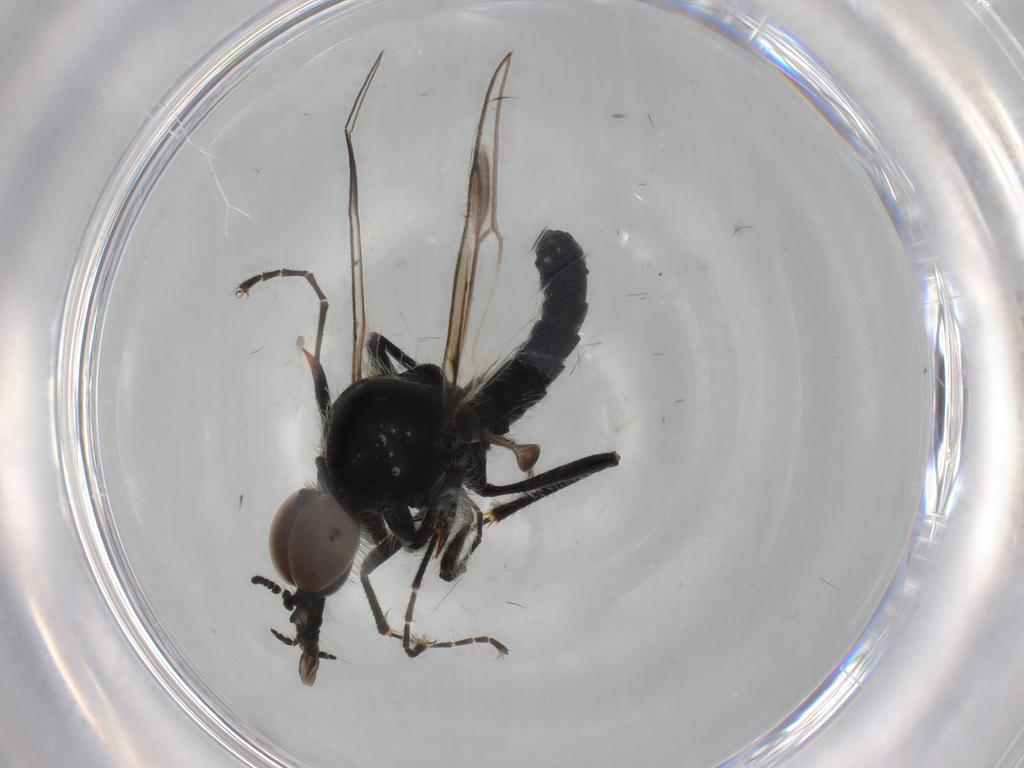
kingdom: Animalia
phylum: Arthropoda
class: Insecta
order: Diptera
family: Bibionidae
